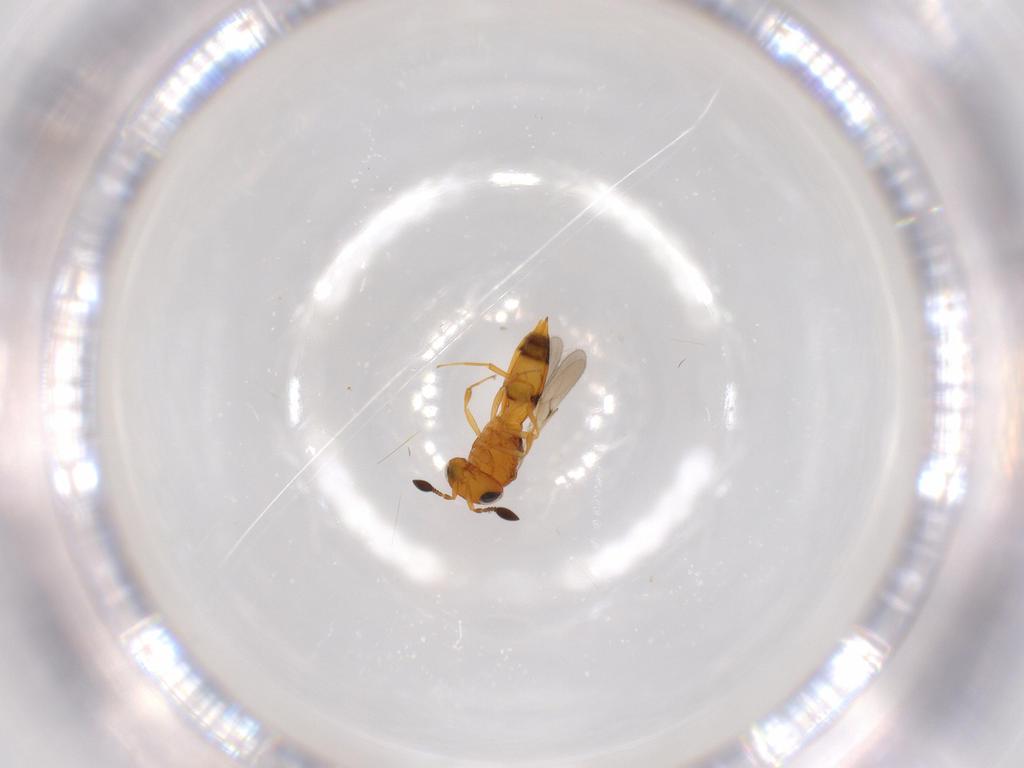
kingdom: Animalia
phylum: Arthropoda
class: Insecta
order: Hymenoptera
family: Scelionidae
